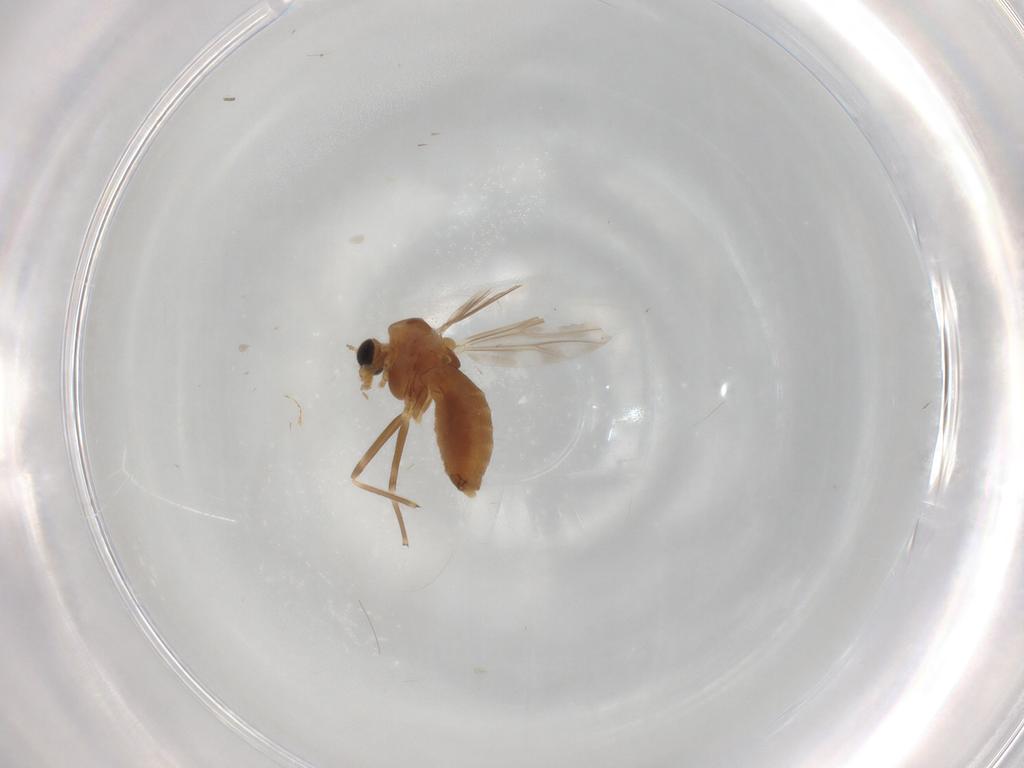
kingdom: Animalia
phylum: Arthropoda
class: Insecta
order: Diptera
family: Chironomidae
